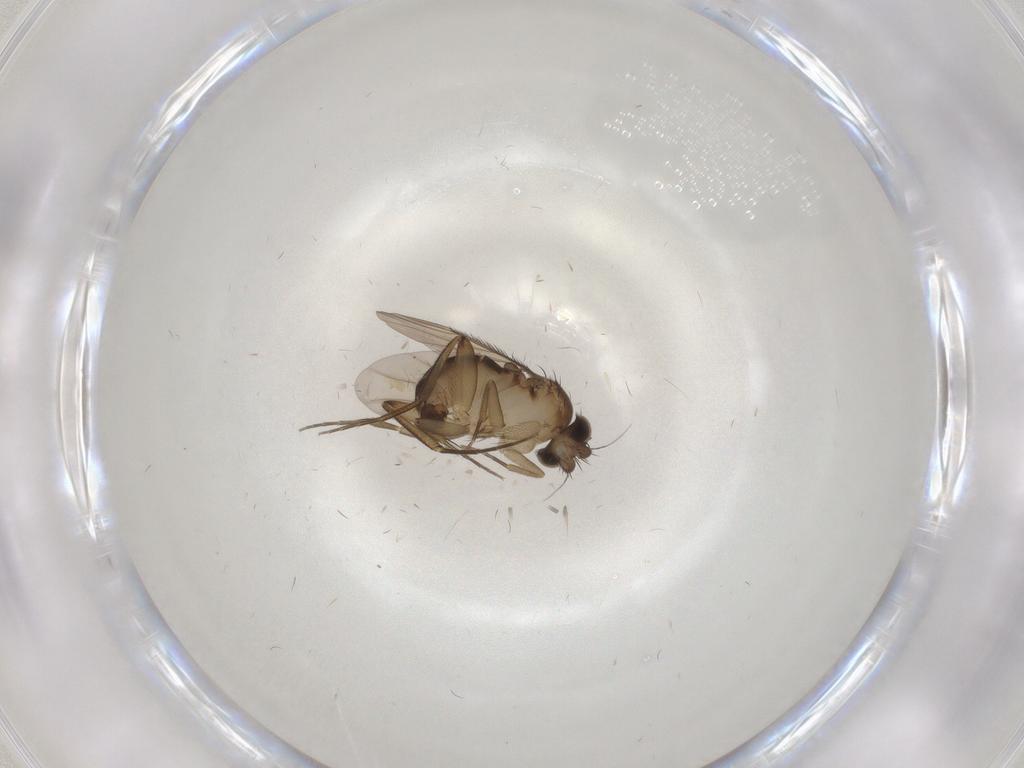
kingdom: Animalia
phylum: Arthropoda
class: Insecta
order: Diptera
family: Phoridae
